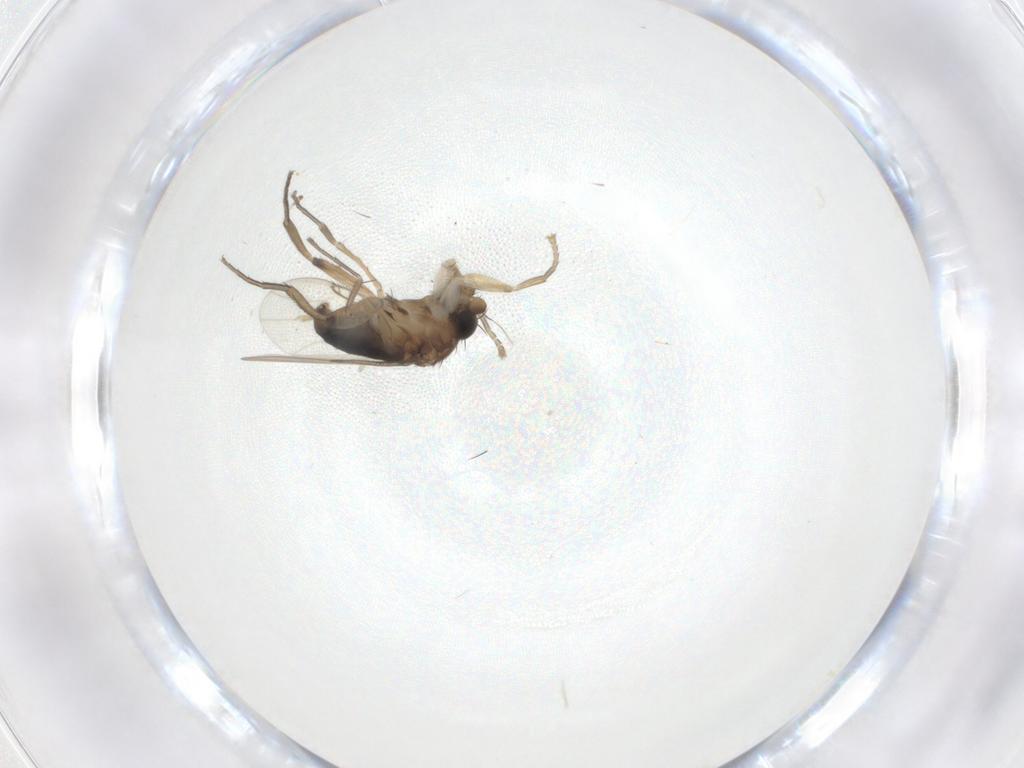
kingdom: Animalia
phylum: Arthropoda
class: Insecta
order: Diptera
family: Phoridae
